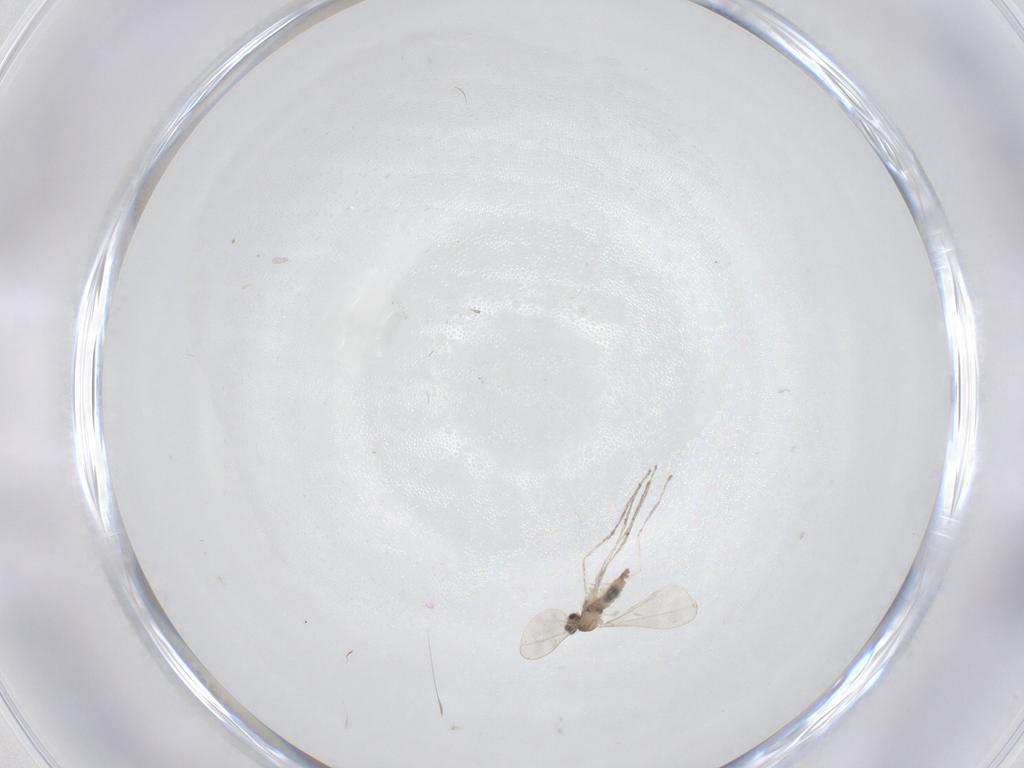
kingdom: Animalia
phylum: Arthropoda
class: Insecta
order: Diptera
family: Cecidomyiidae
